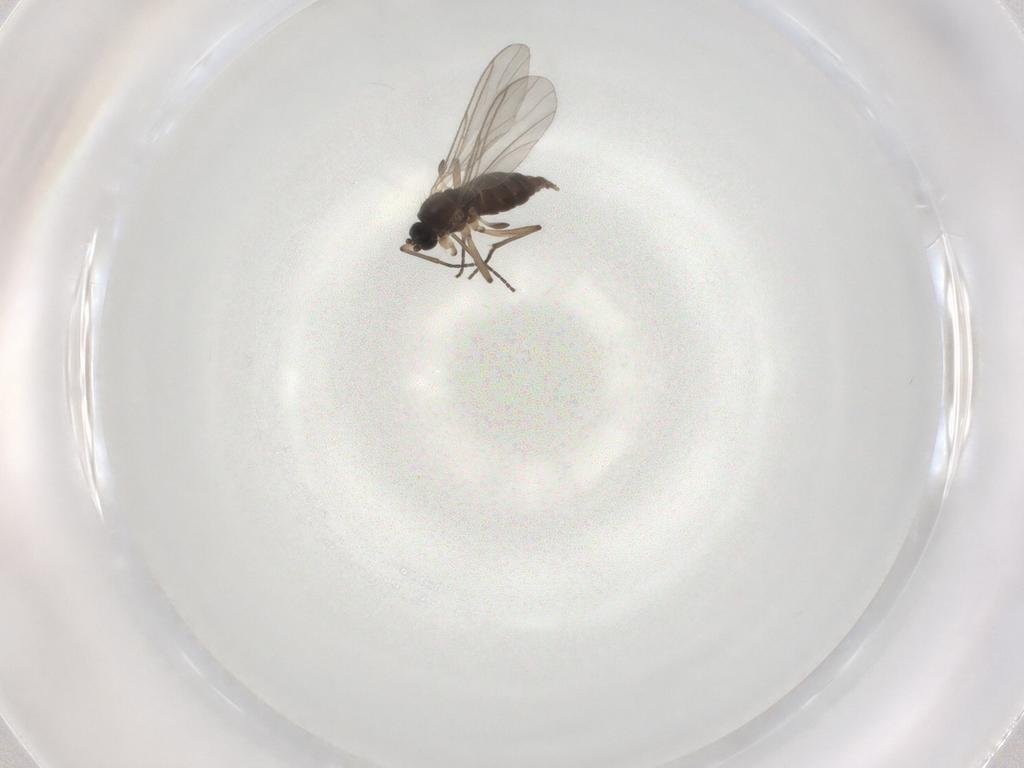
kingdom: Animalia
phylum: Arthropoda
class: Insecta
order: Diptera
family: Sciaridae
